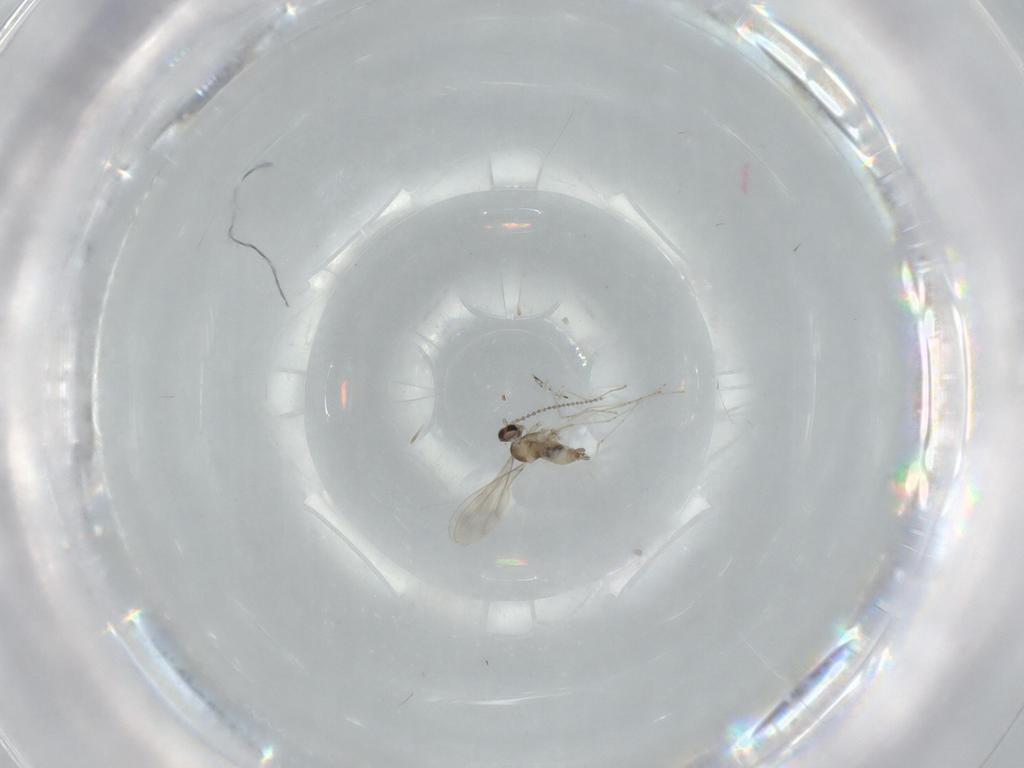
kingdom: Animalia
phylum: Arthropoda
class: Insecta
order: Diptera
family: Cecidomyiidae
